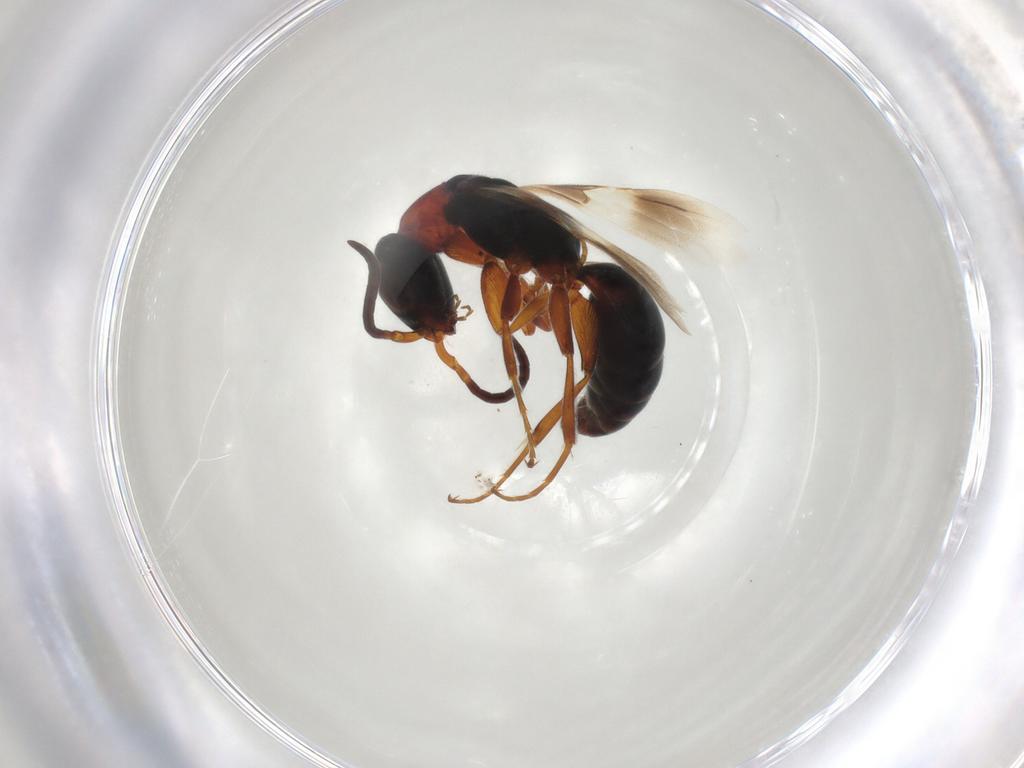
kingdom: Animalia
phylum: Arthropoda
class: Insecta
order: Hymenoptera
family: Bethylidae
